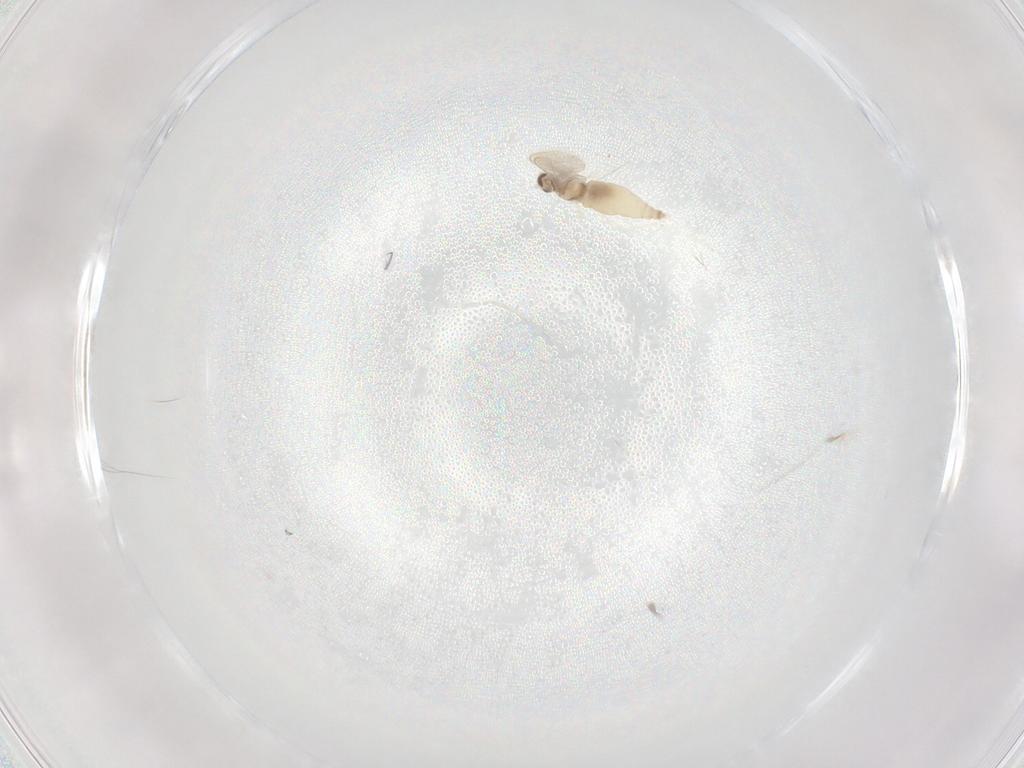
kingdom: Animalia
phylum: Arthropoda
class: Insecta
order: Diptera
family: Cecidomyiidae
